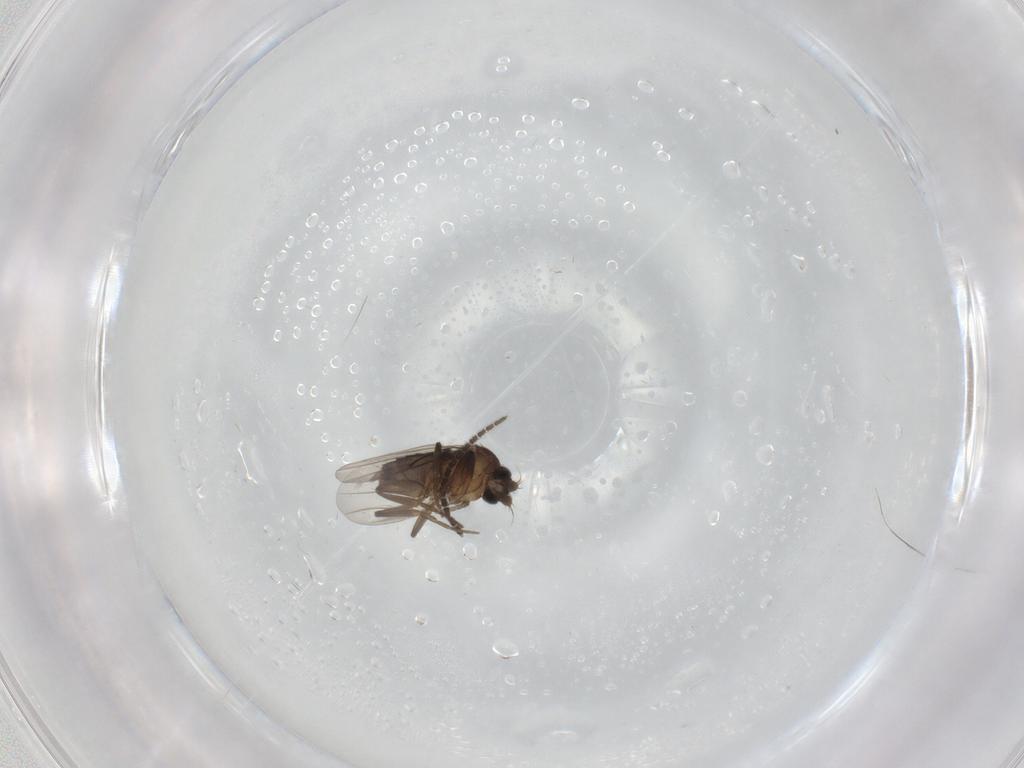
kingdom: Animalia
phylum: Arthropoda
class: Insecta
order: Diptera
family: Phoridae
